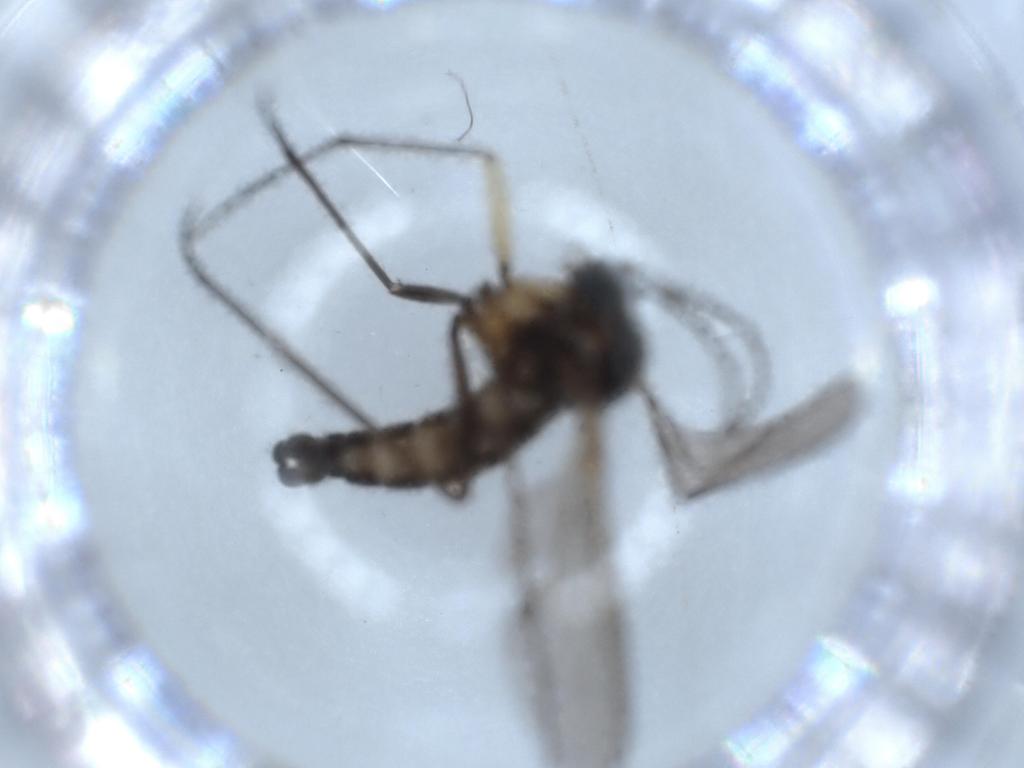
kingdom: Animalia
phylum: Arthropoda
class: Insecta
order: Diptera
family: Sciaridae
